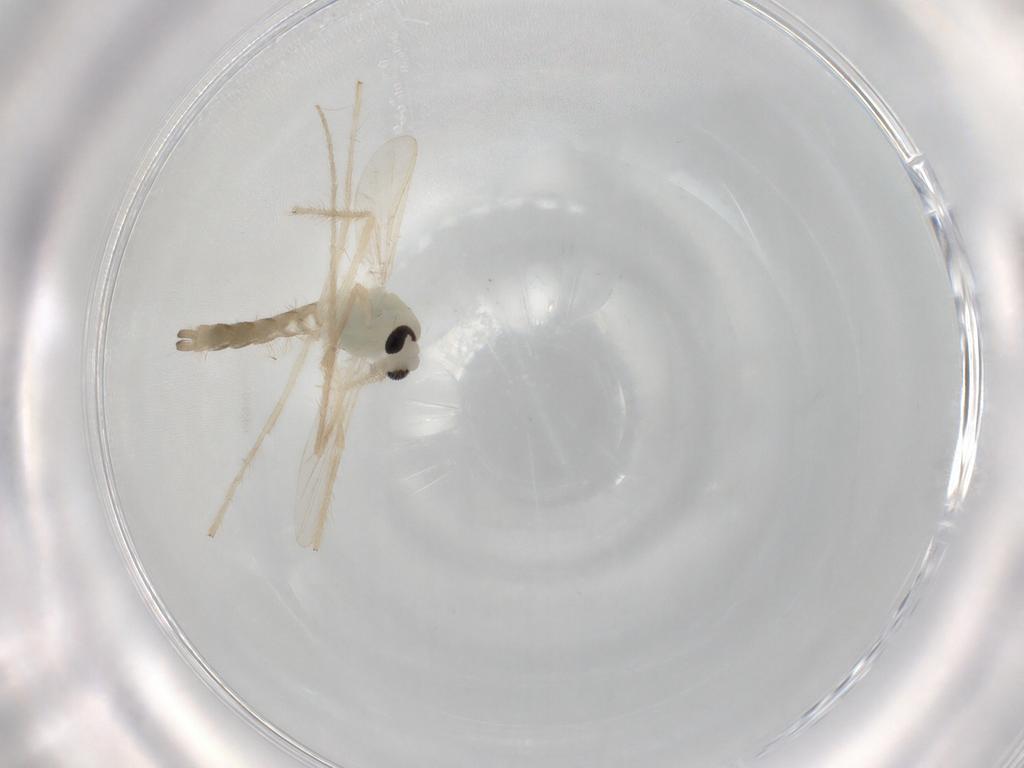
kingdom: Animalia
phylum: Arthropoda
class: Insecta
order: Diptera
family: Chironomidae
